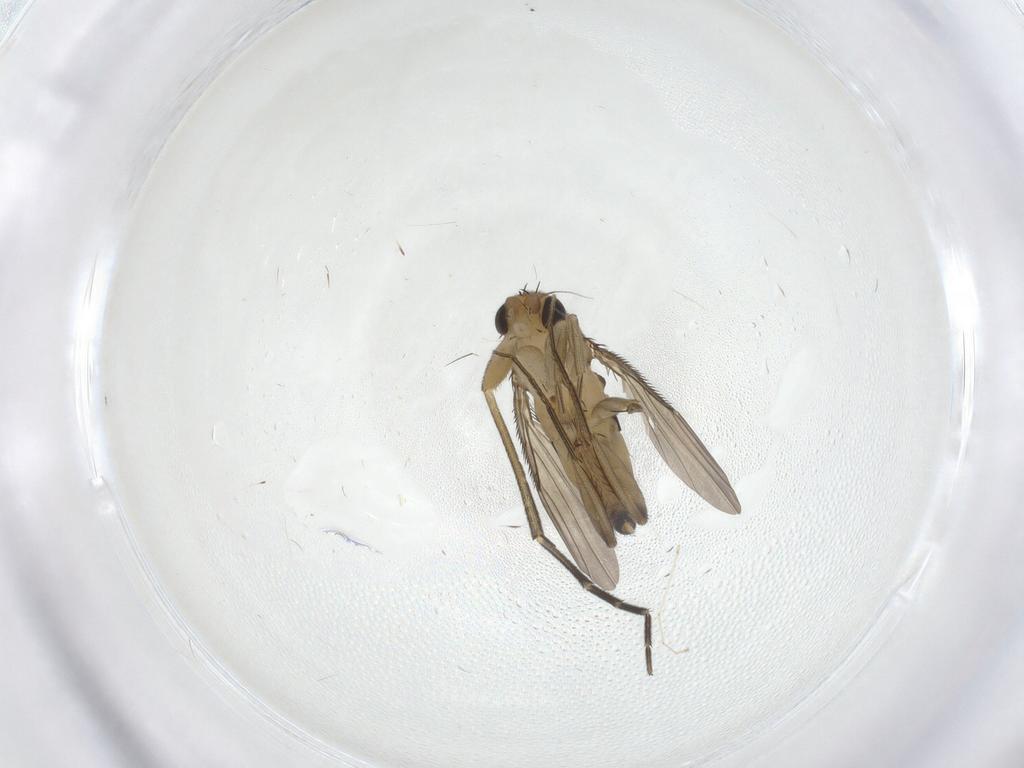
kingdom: Animalia
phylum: Arthropoda
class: Insecta
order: Diptera
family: Phoridae
